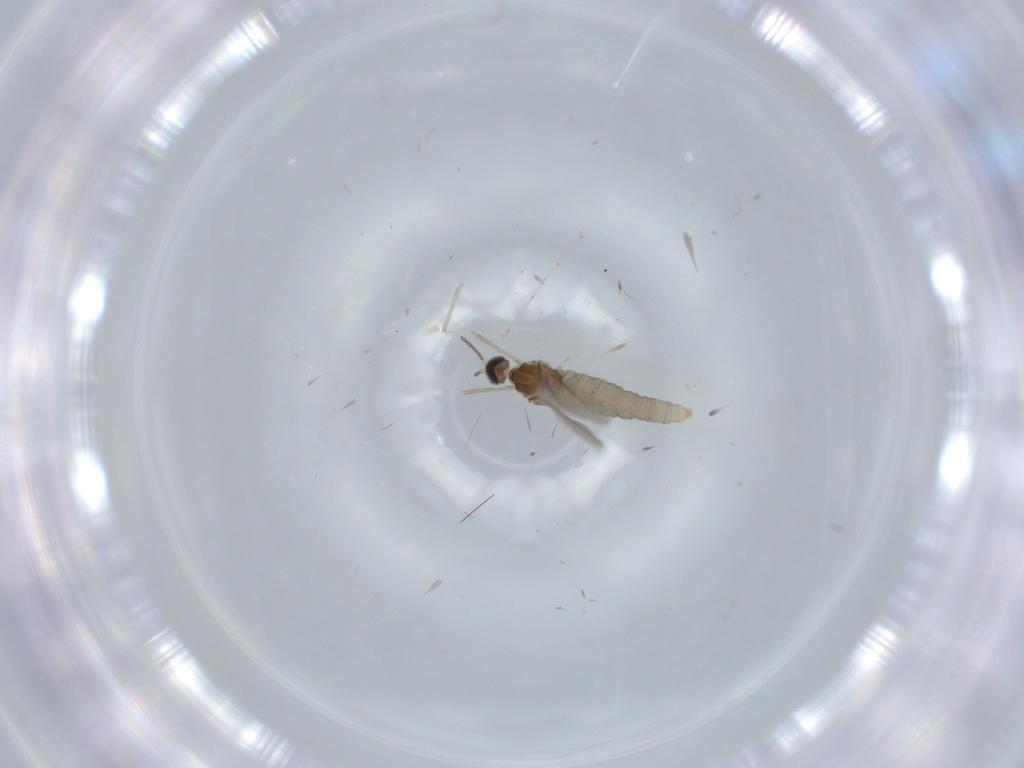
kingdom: Animalia
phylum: Arthropoda
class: Insecta
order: Diptera
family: Cecidomyiidae
